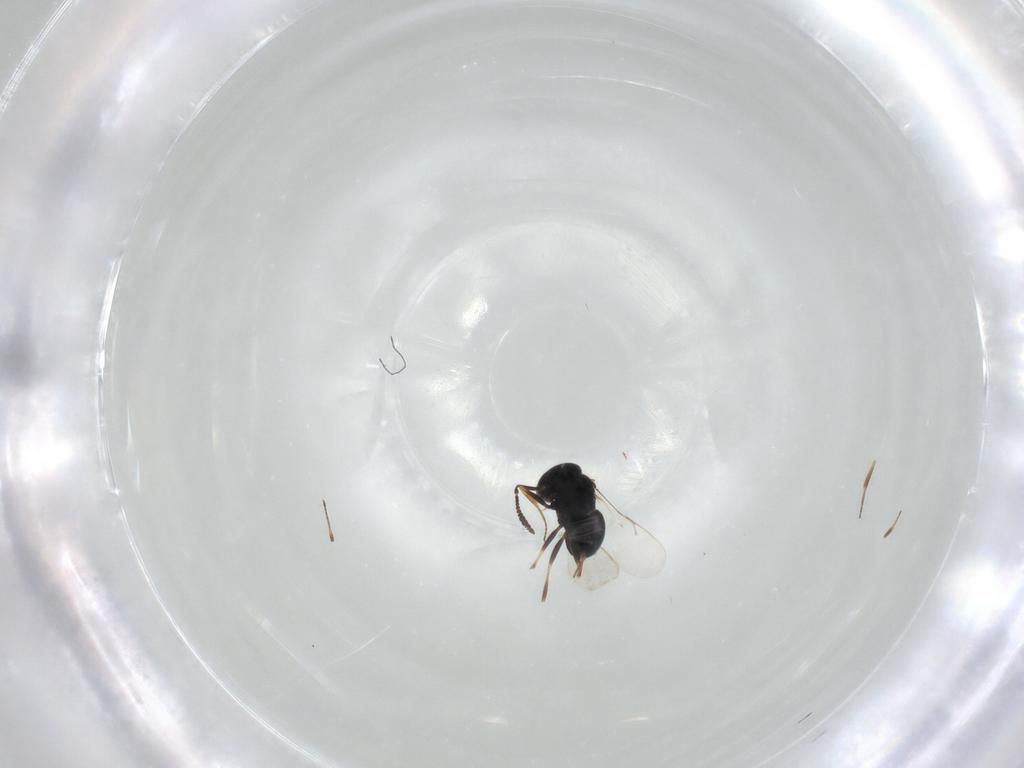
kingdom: Animalia
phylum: Arthropoda
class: Insecta
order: Hymenoptera
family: Scelionidae
